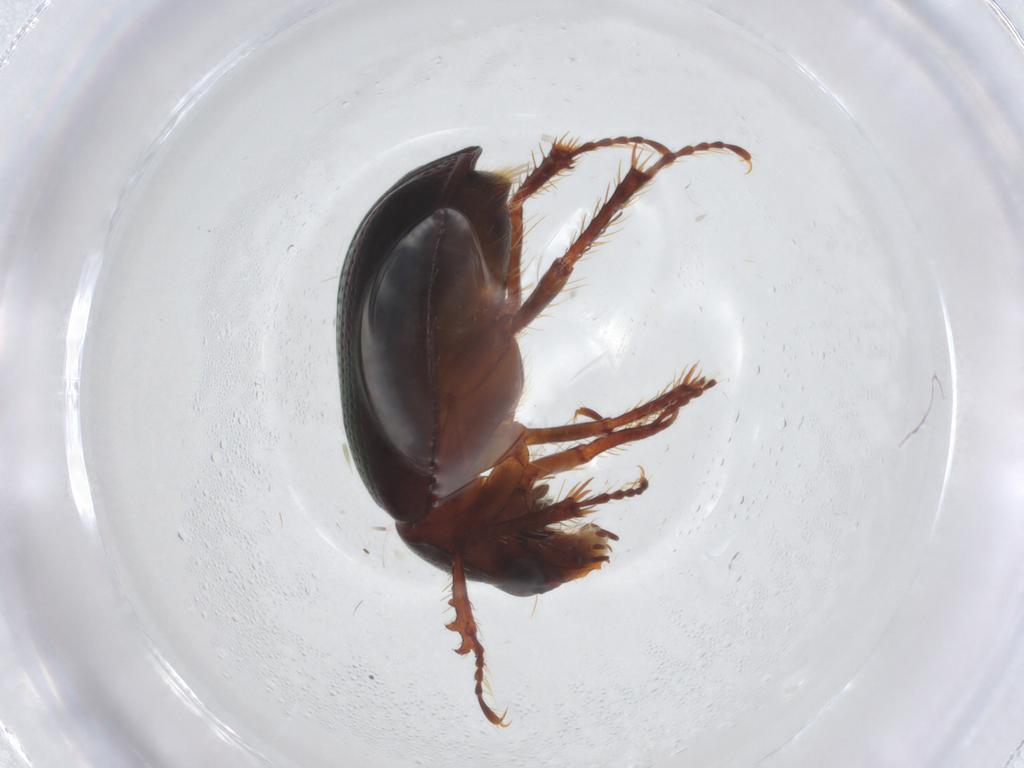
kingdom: Animalia
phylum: Arthropoda
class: Insecta
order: Coleoptera
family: Hybosoridae
